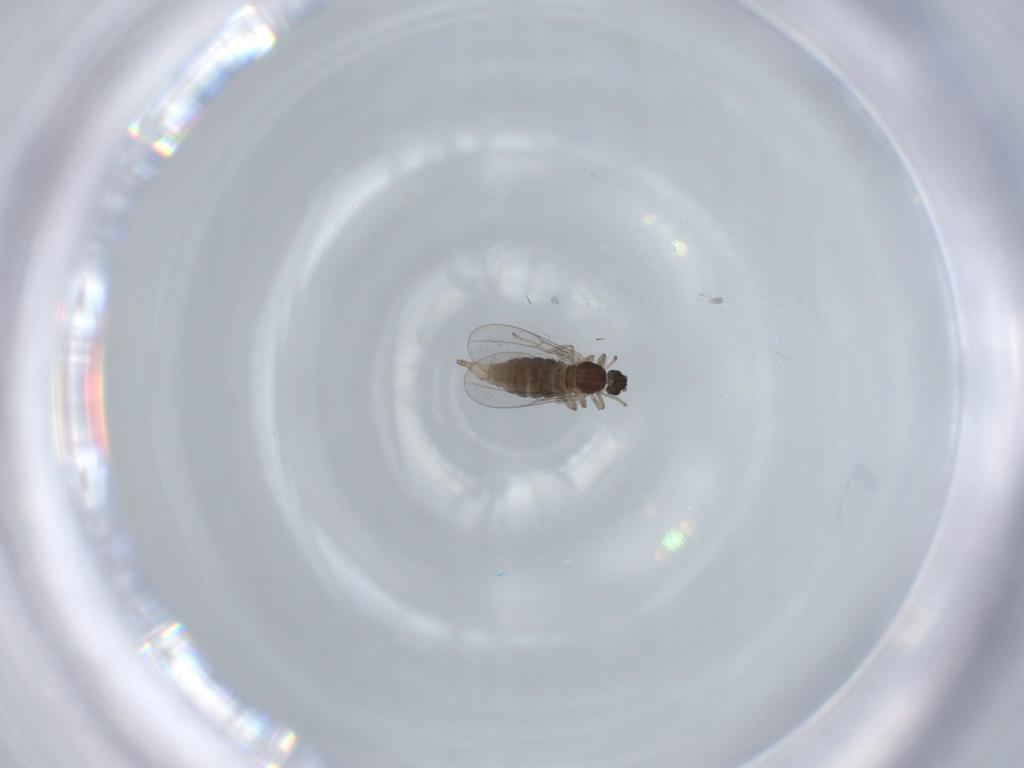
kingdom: Animalia
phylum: Arthropoda
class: Insecta
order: Diptera
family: Cecidomyiidae
